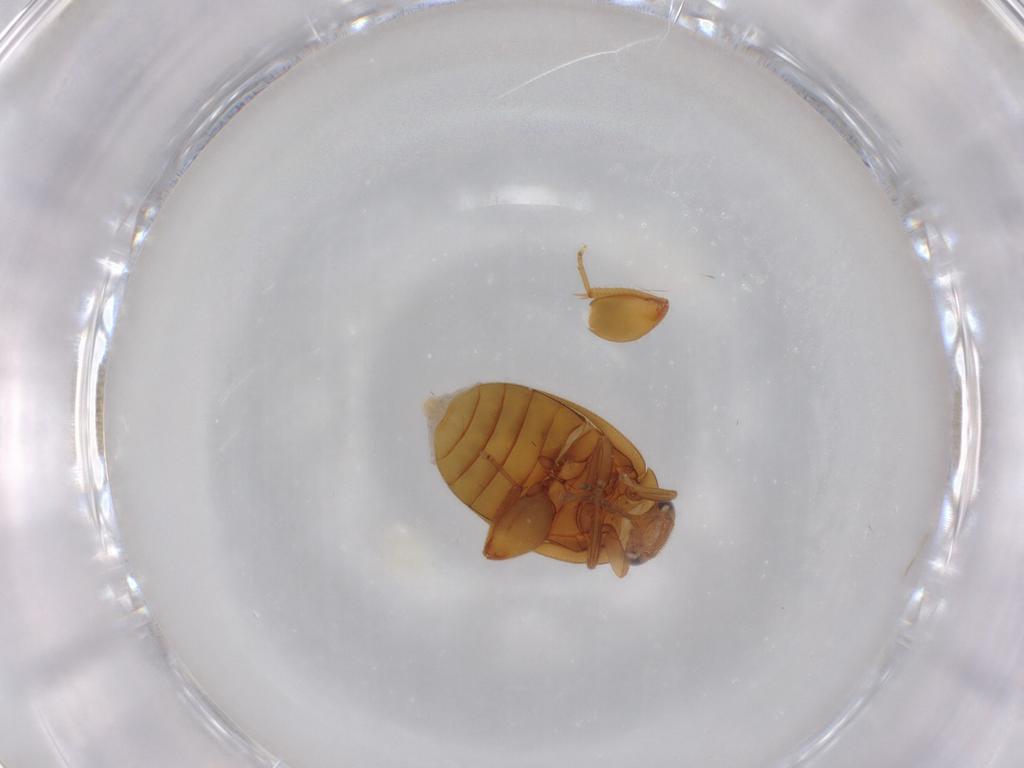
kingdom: Animalia
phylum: Arthropoda
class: Insecta
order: Coleoptera
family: Scirtidae
